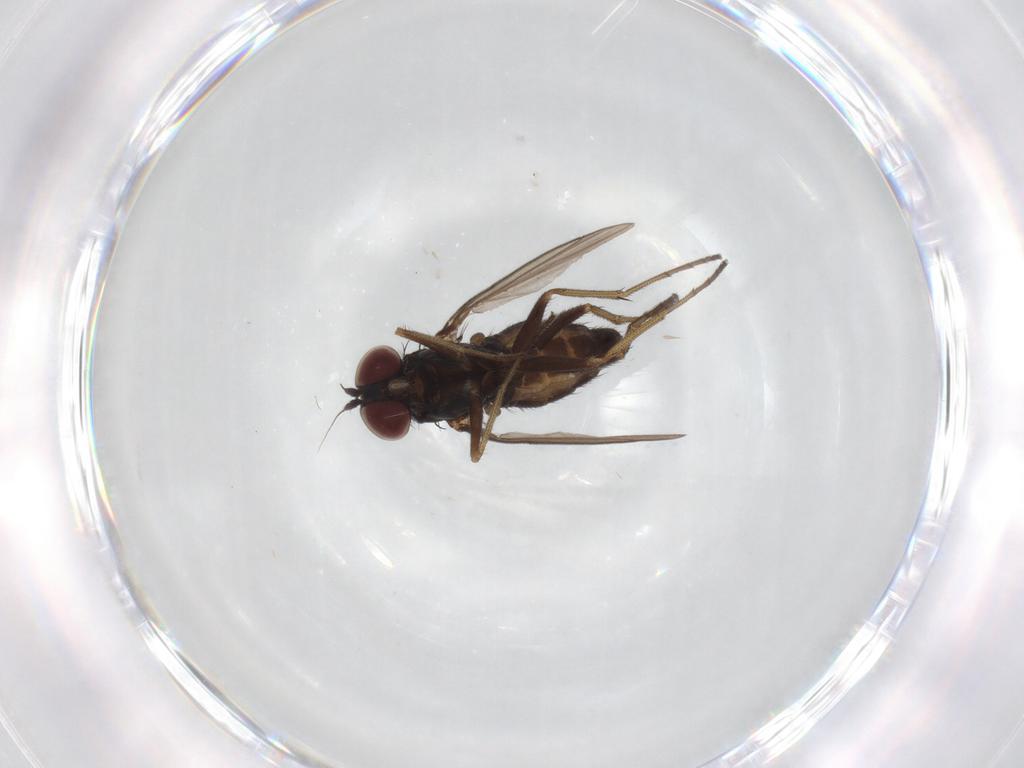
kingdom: Animalia
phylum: Arthropoda
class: Insecta
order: Diptera
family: Dolichopodidae
